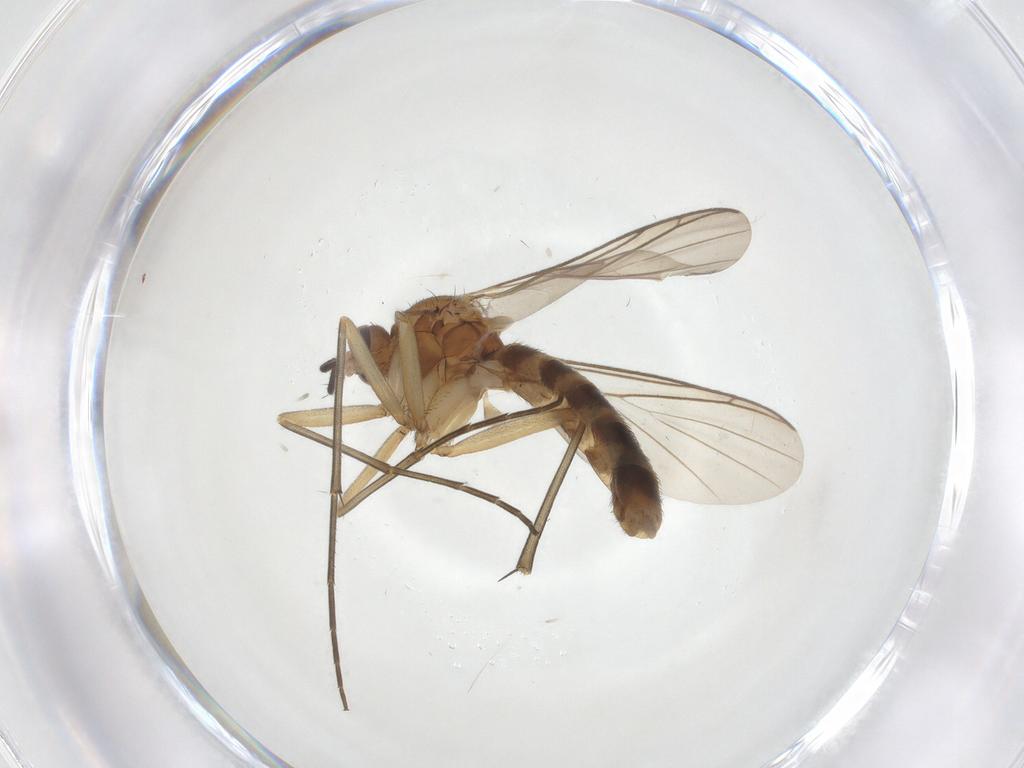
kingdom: Animalia
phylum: Arthropoda
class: Insecta
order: Diptera
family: Keroplatidae
